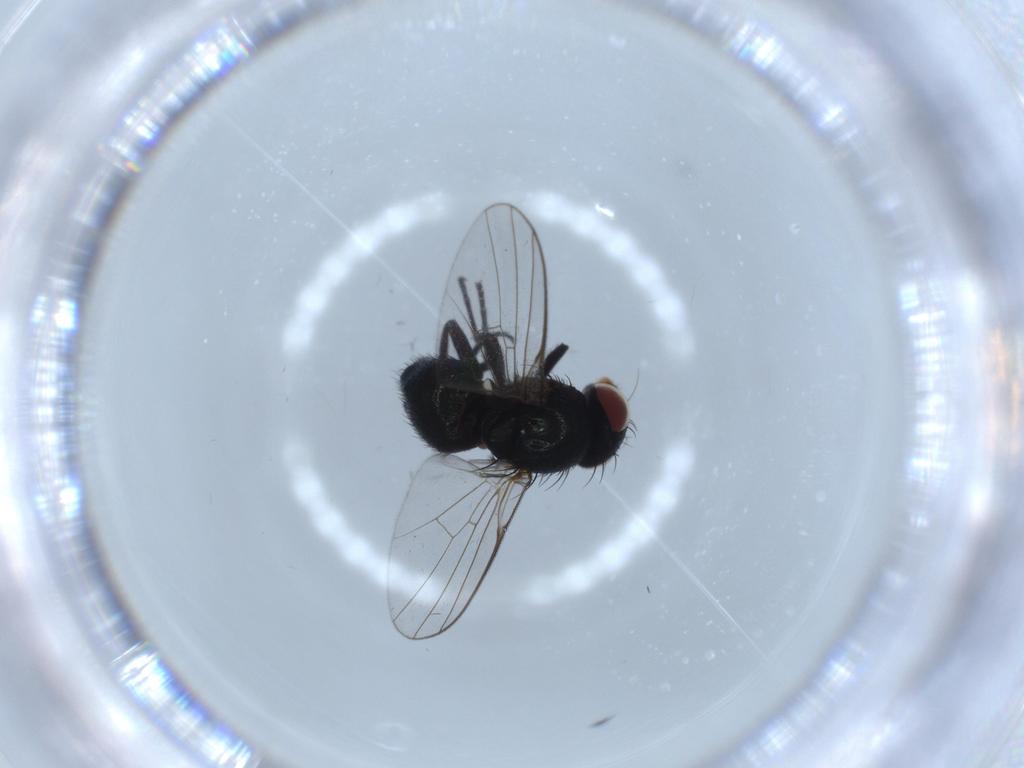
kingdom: Animalia
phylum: Arthropoda
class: Insecta
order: Diptera
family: Agromyzidae
